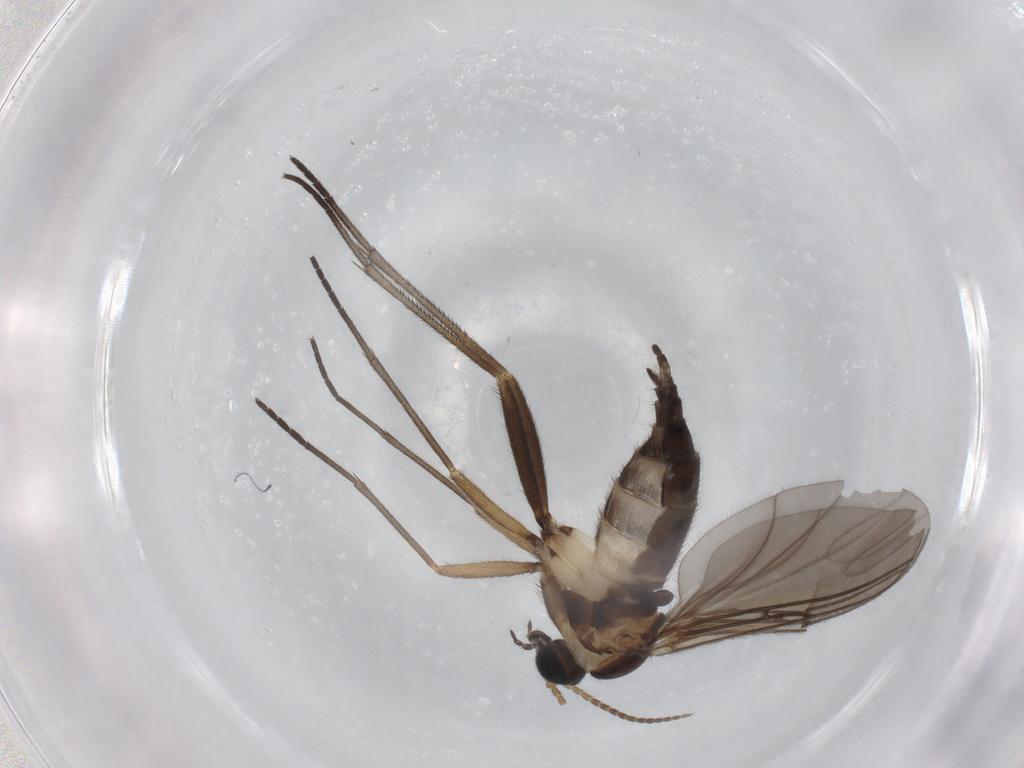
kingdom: Animalia
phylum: Arthropoda
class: Insecta
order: Diptera
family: Sciaridae
